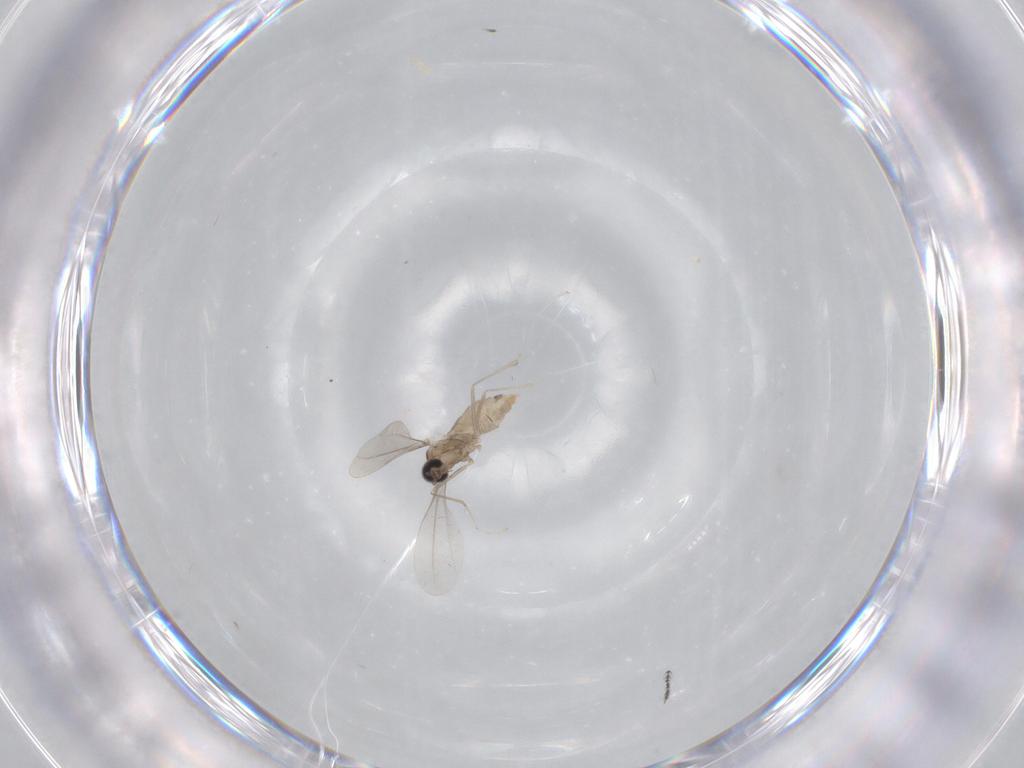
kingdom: Animalia
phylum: Arthropoda
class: Insecta
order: Diptera
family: Cecidomyiidae
